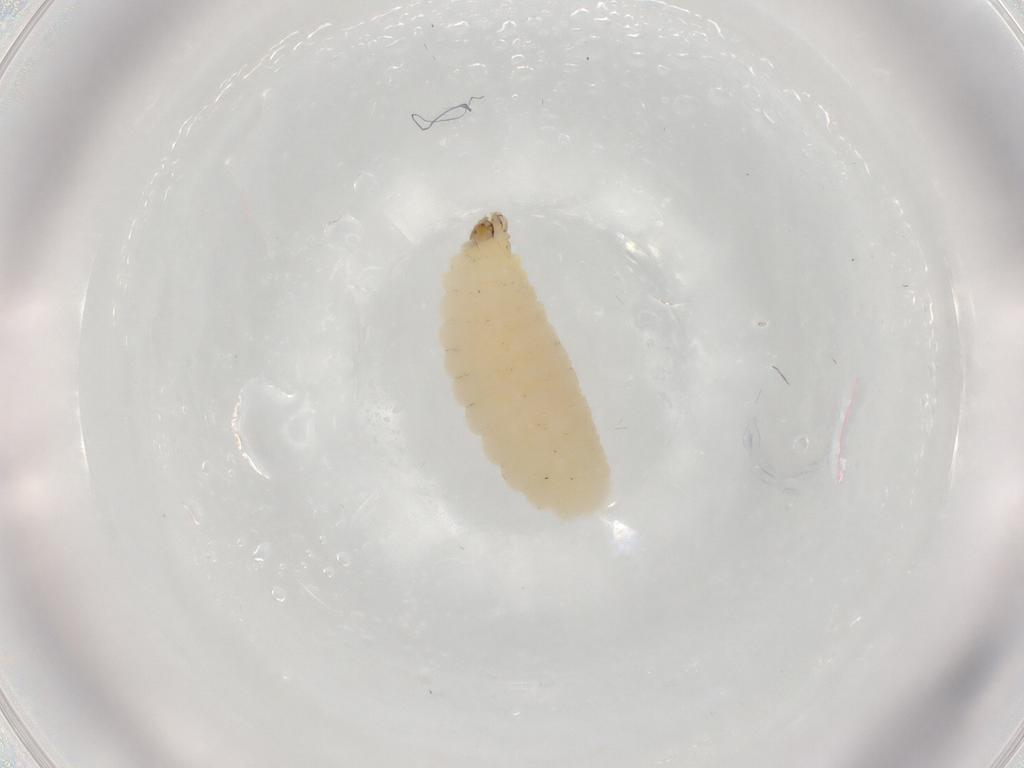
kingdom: Animalia
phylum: Arthropoda
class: Insecta
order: Hymenoptera
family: Dryinidae
